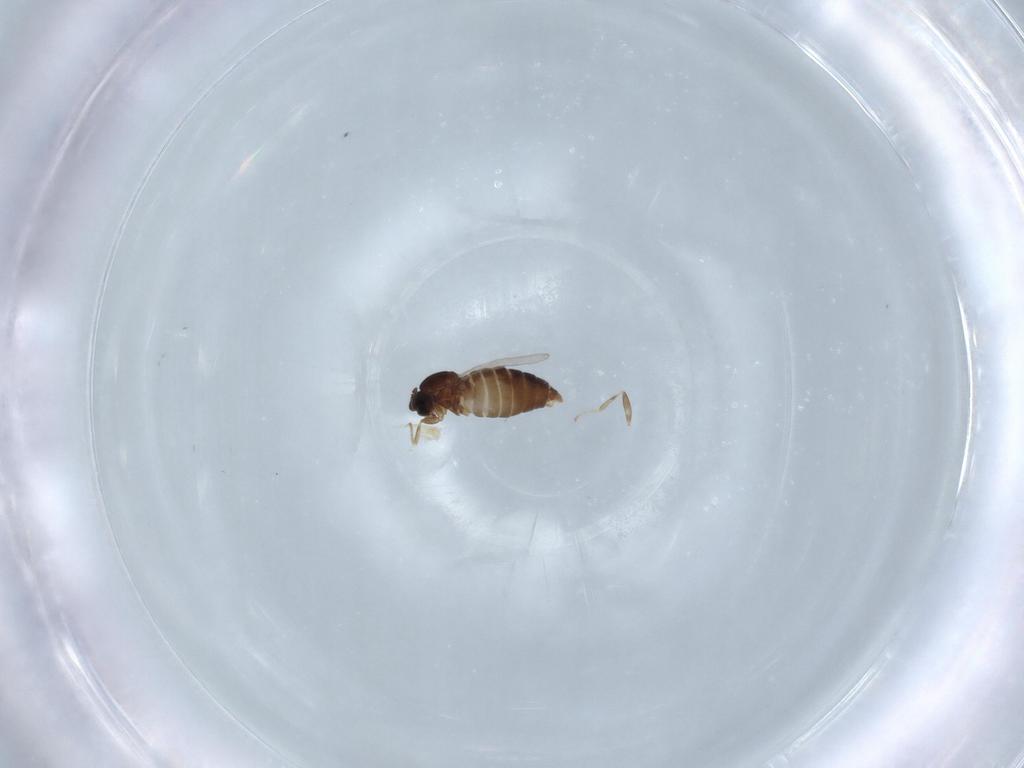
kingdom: Animalia
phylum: Arthropoda
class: Insecta
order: Diptera
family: Scatopsidae
